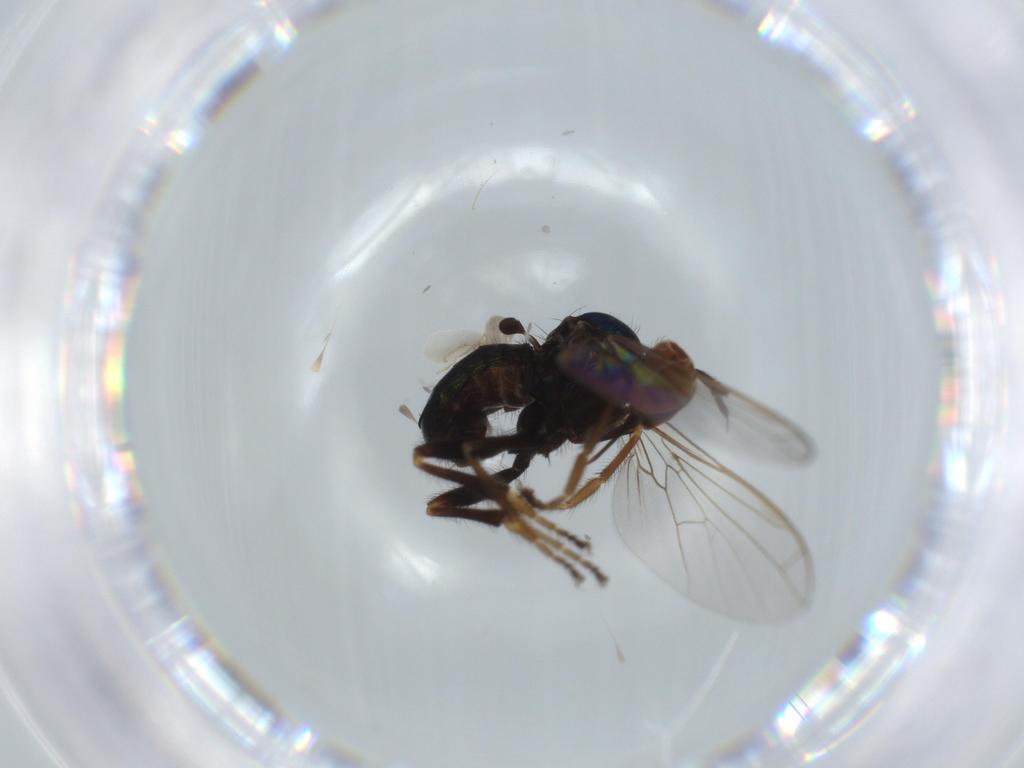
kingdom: Animalia
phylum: Arthropoda
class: Insecta
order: Diptera
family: Empididae
